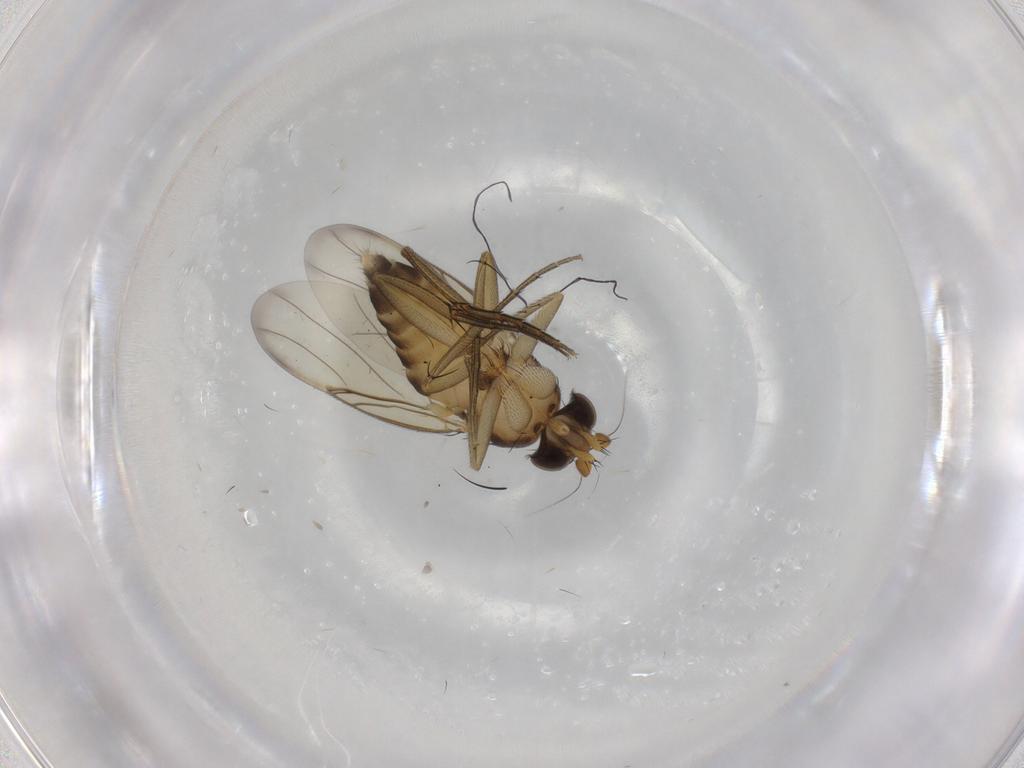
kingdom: Animalia
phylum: Arthropoda
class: Insecta
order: Diptera
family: Phoridae
